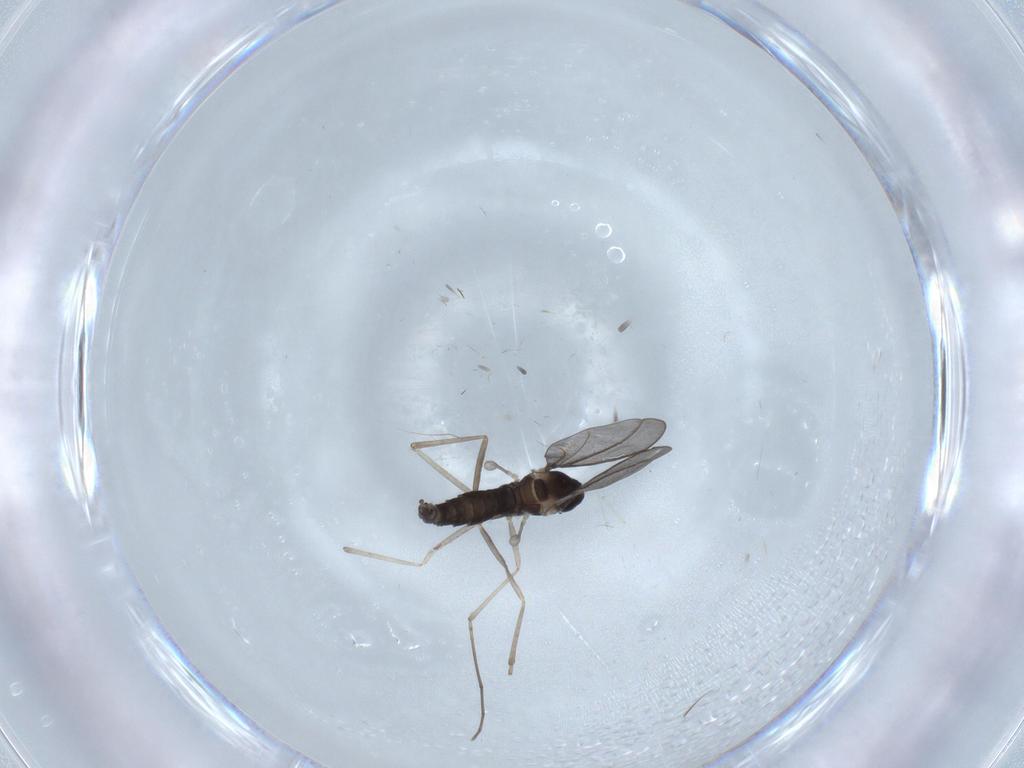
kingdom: Animalia
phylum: Arthropoda
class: Insecta
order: Diptera
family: Cecidomyiidae
